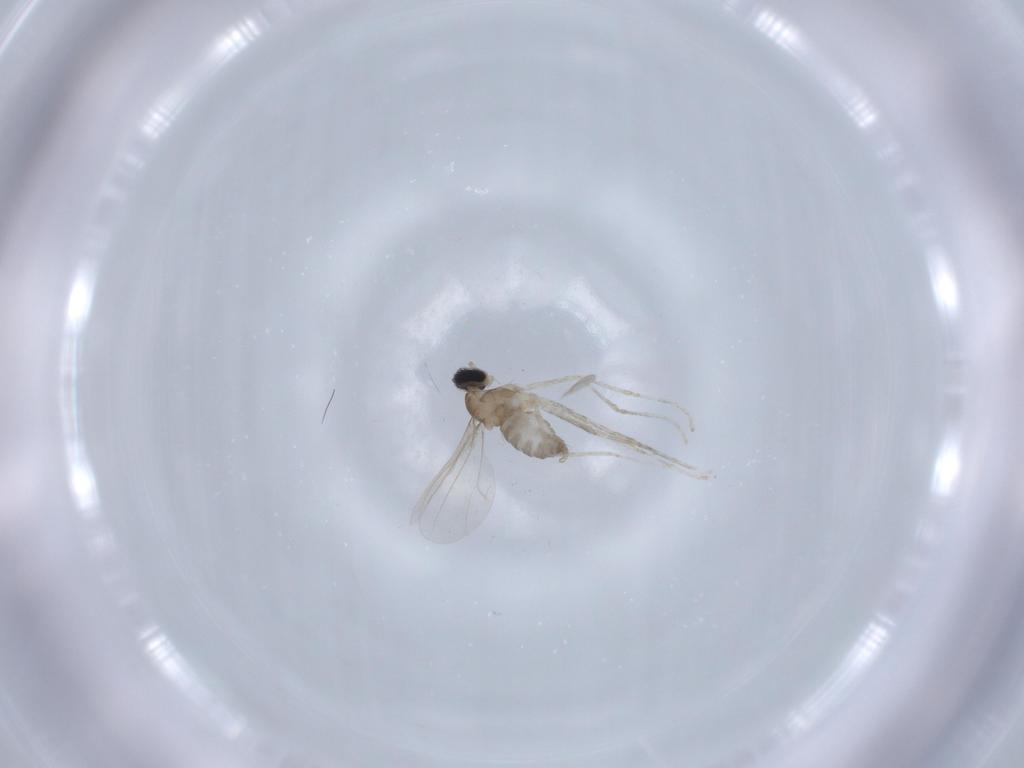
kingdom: Animalia
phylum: Arthropoda
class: Insecta
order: Diptera
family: Cecidomyiidae
